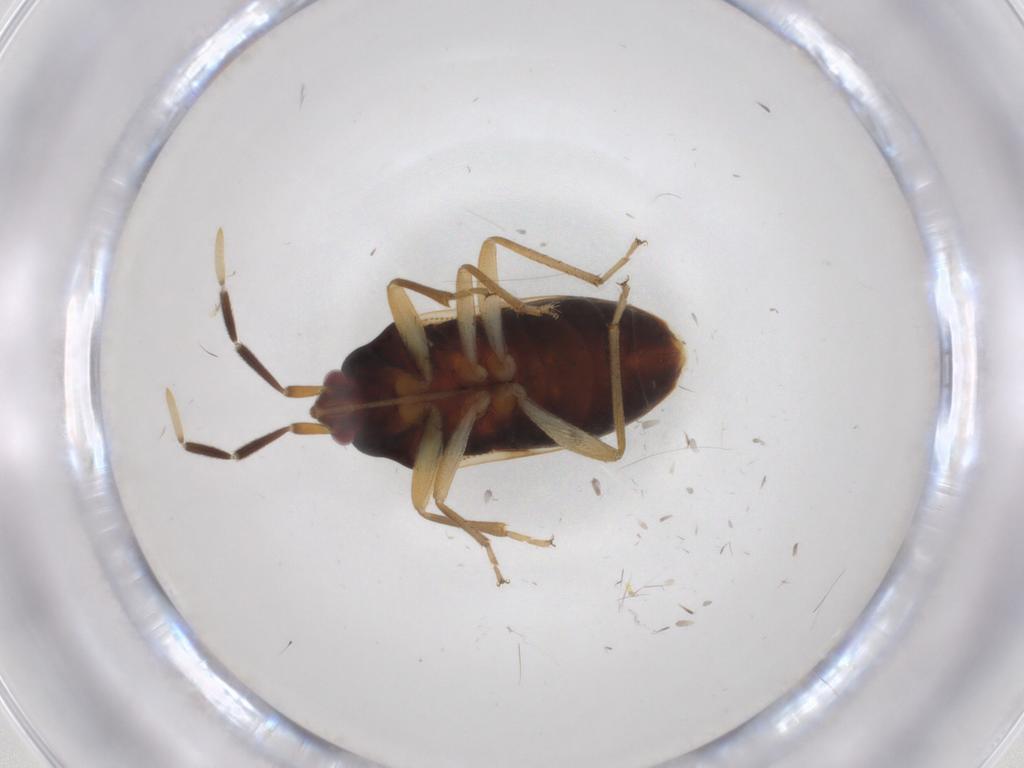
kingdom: Animalia
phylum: Arthropoda
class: Insecta
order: Hemiptera
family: Rhyparochromidae
